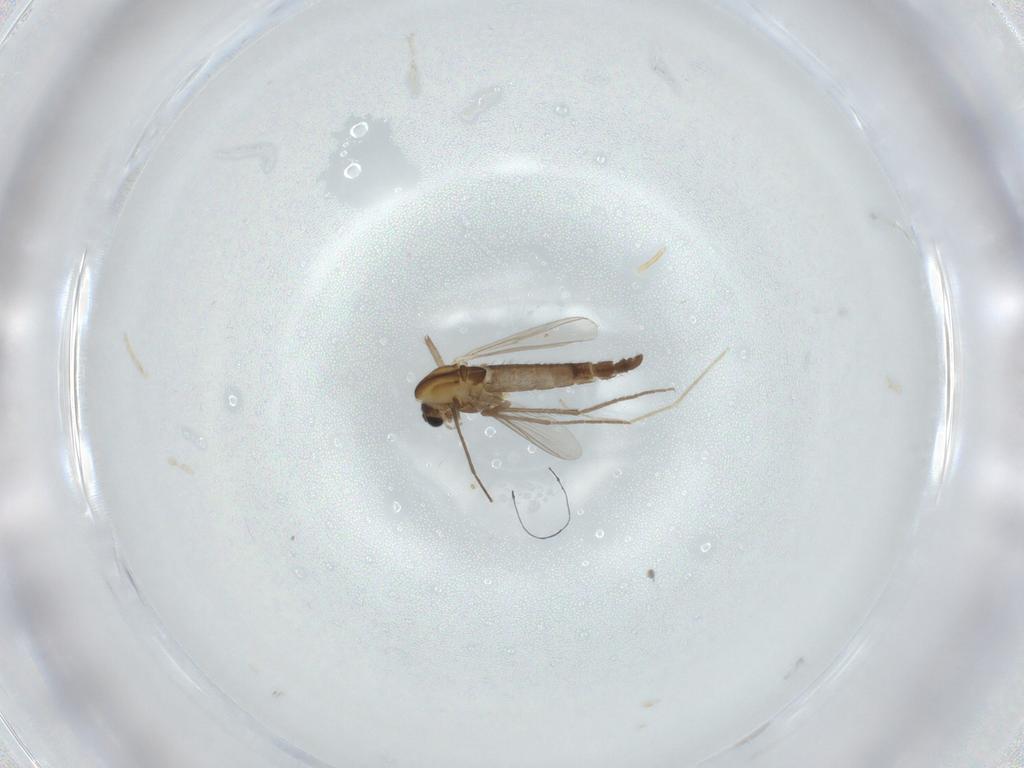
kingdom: Animalia
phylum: Arthropoda
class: Insecta
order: Diptera
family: Chironomidae
